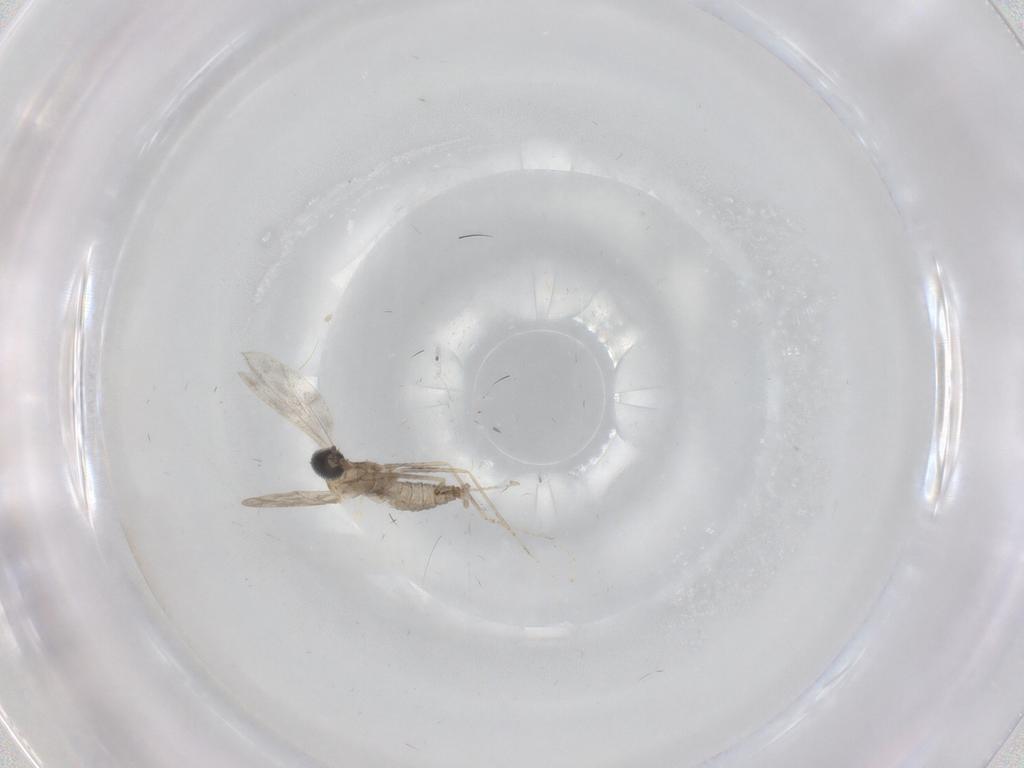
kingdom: Animalia
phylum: Arthropoda
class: Insecta
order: Diptera
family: Cecidomyiidae
